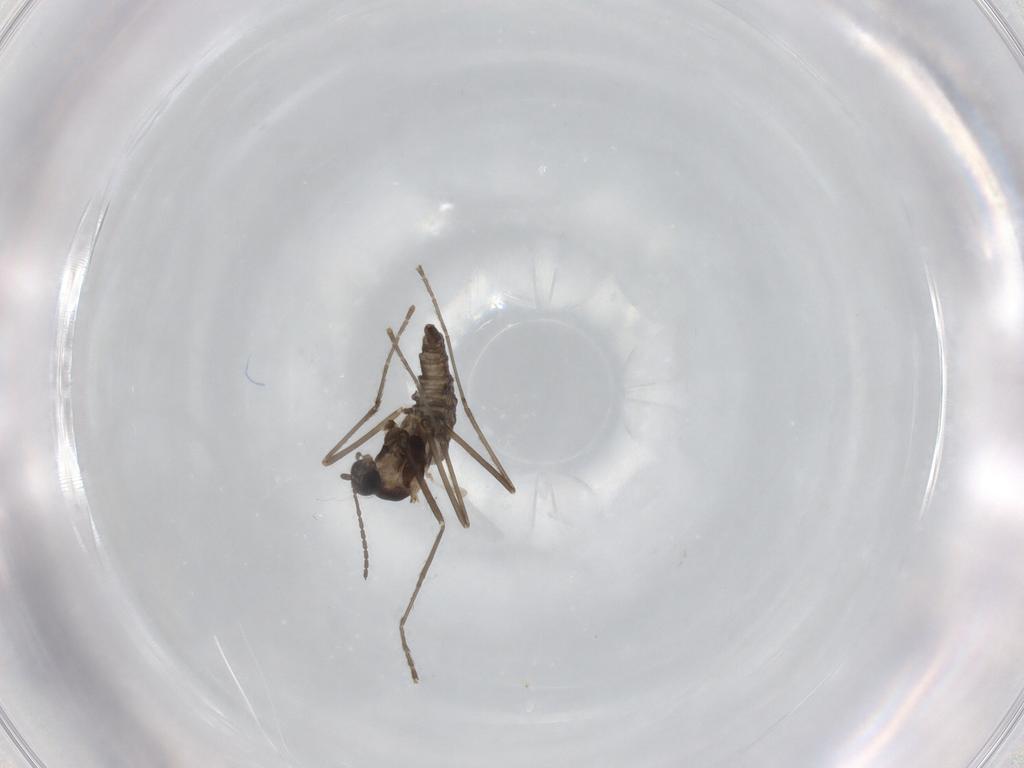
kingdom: Animalia
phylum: Arthropoda
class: Insecta
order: Diptera
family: Cecidomyiidae
